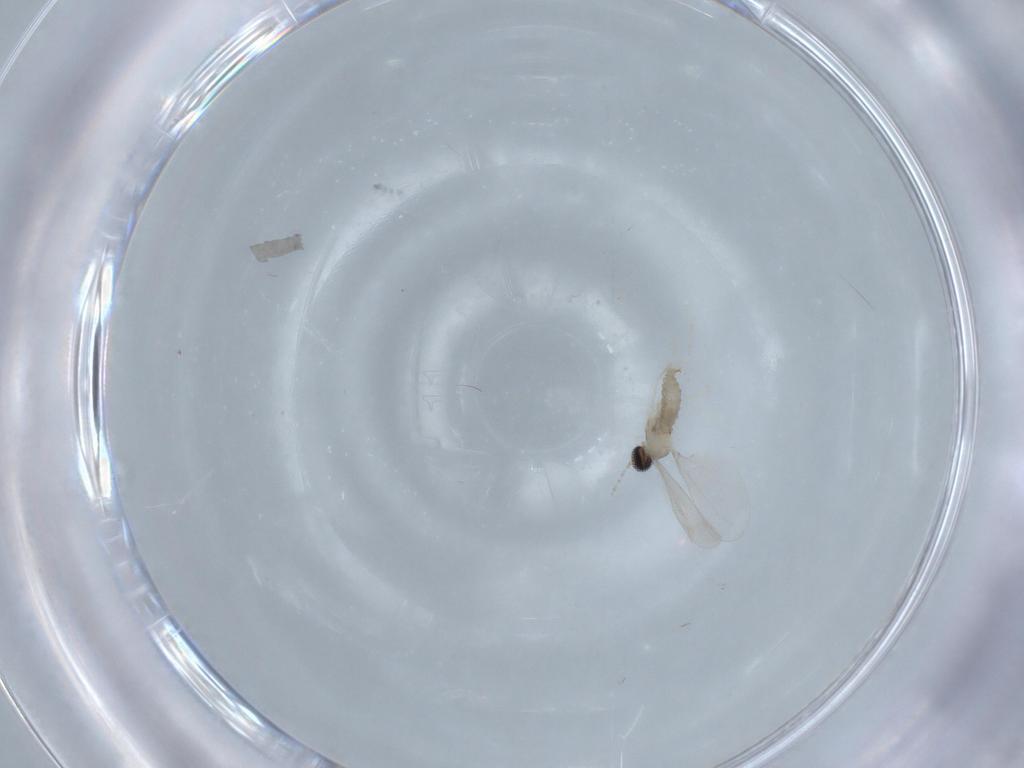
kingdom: Animalia
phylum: Arthropoda
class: Insecta
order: Diptera
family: Cecidomyiidae
